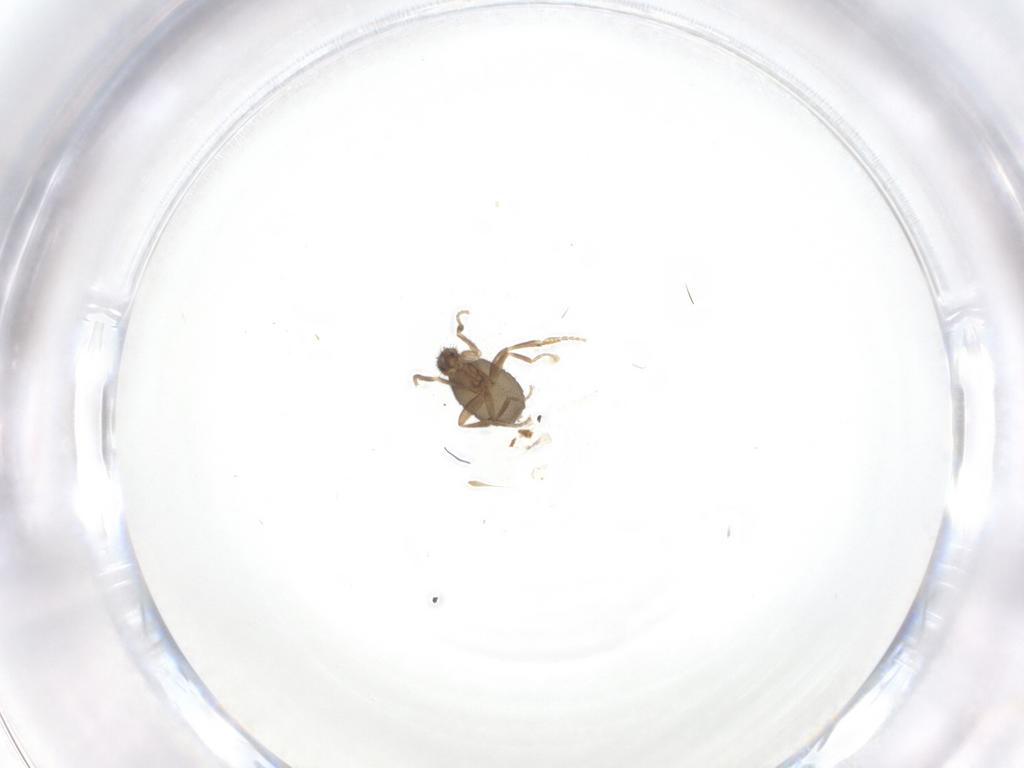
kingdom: Animalia
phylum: Arthropoda
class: Insecta
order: Diptera
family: Phoridae
